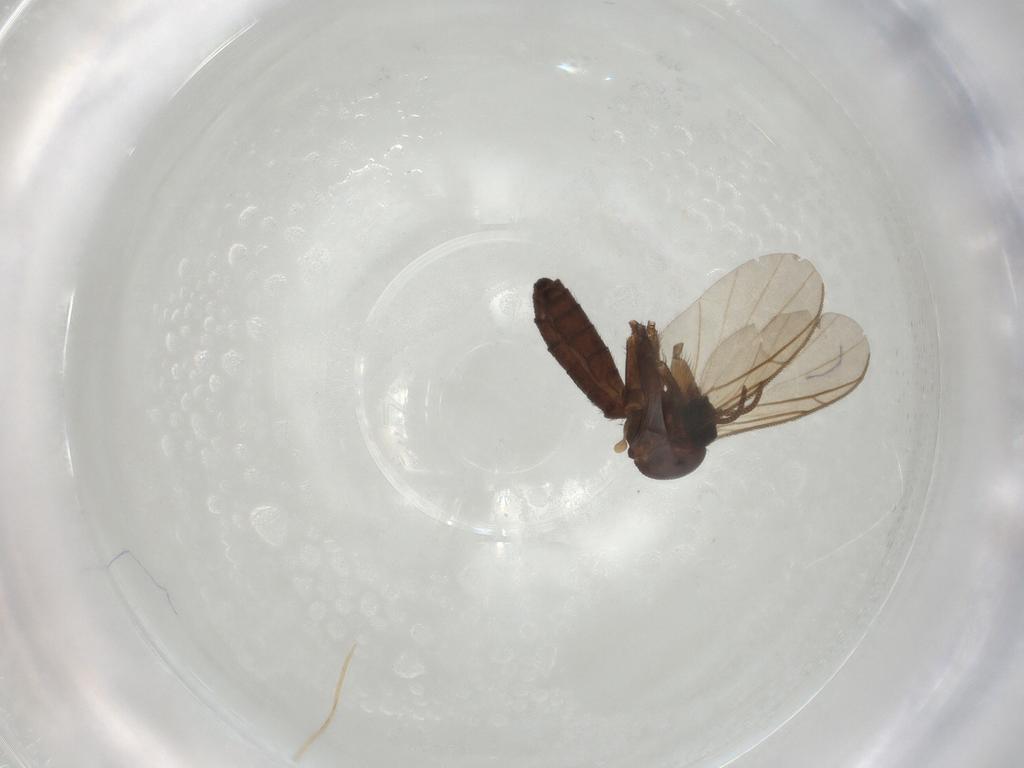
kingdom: Animalia
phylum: Arthropoda
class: Insecta
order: Diptera
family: Keroplatidae
